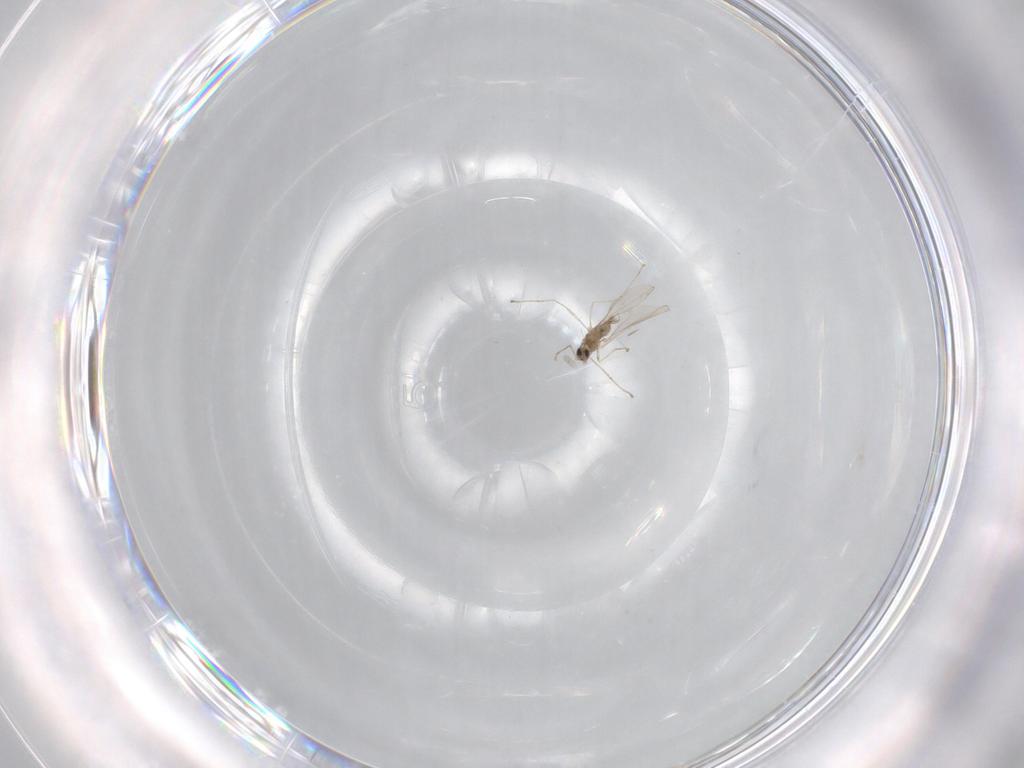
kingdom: Animalia
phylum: Arthropoda
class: Insecta
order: Diptera
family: Cecidomyiidae
